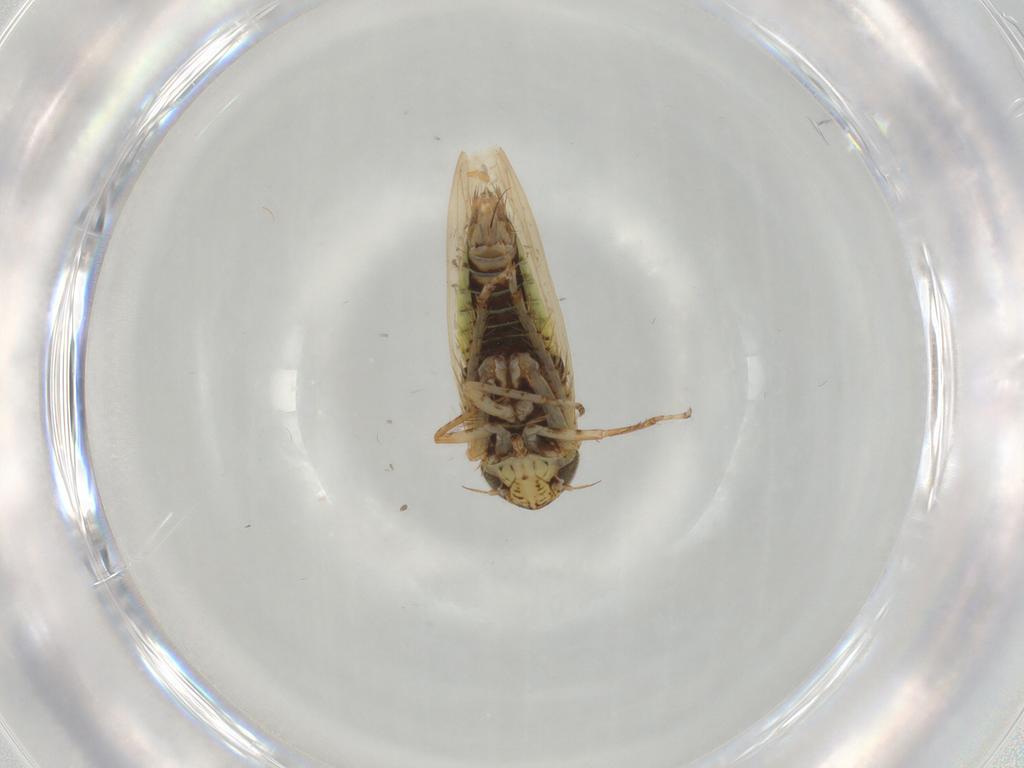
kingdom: Animalia
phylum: Arthropoda
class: Insecta
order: Hemiptera
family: Cicadellidae
